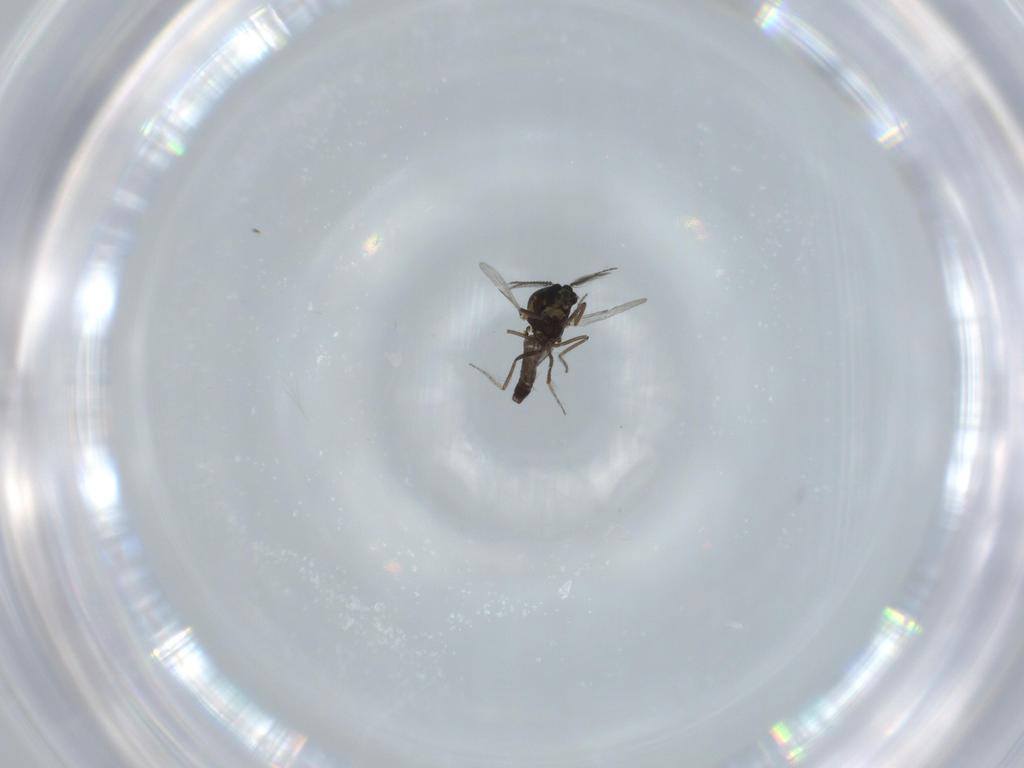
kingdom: Animalia
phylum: Arthropoda
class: Insecta
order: Diptera
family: Ceratopogonidae
